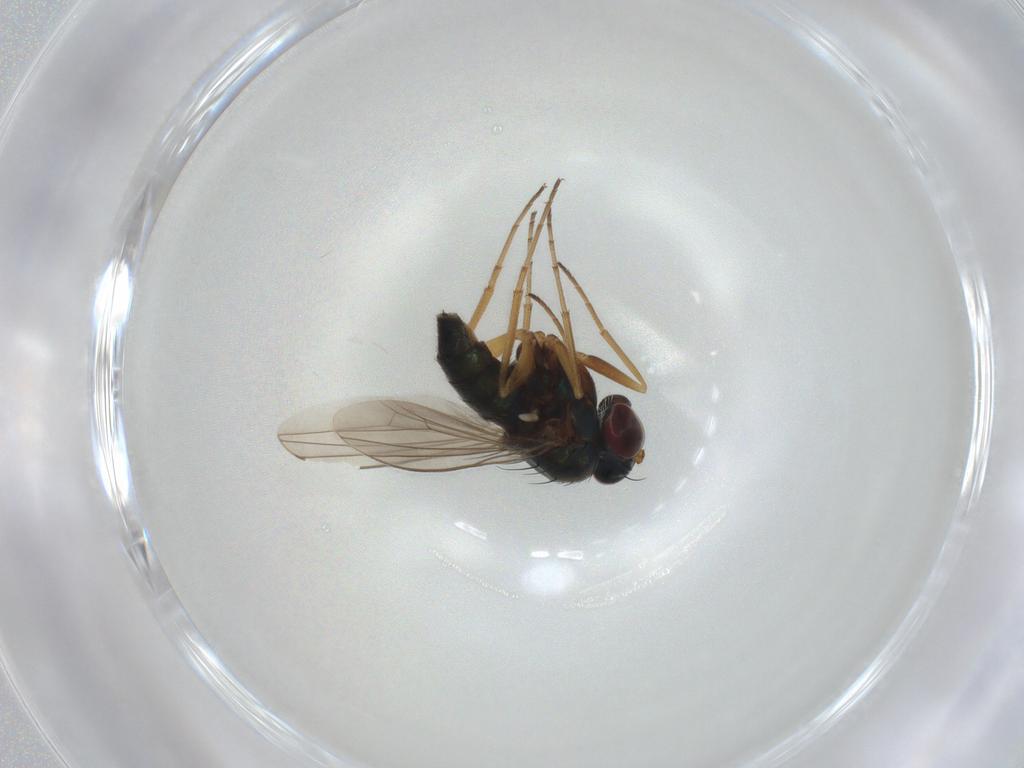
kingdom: Animalia
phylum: Arthropoda
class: Insecta
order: Diptera
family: Dolichopodidae
